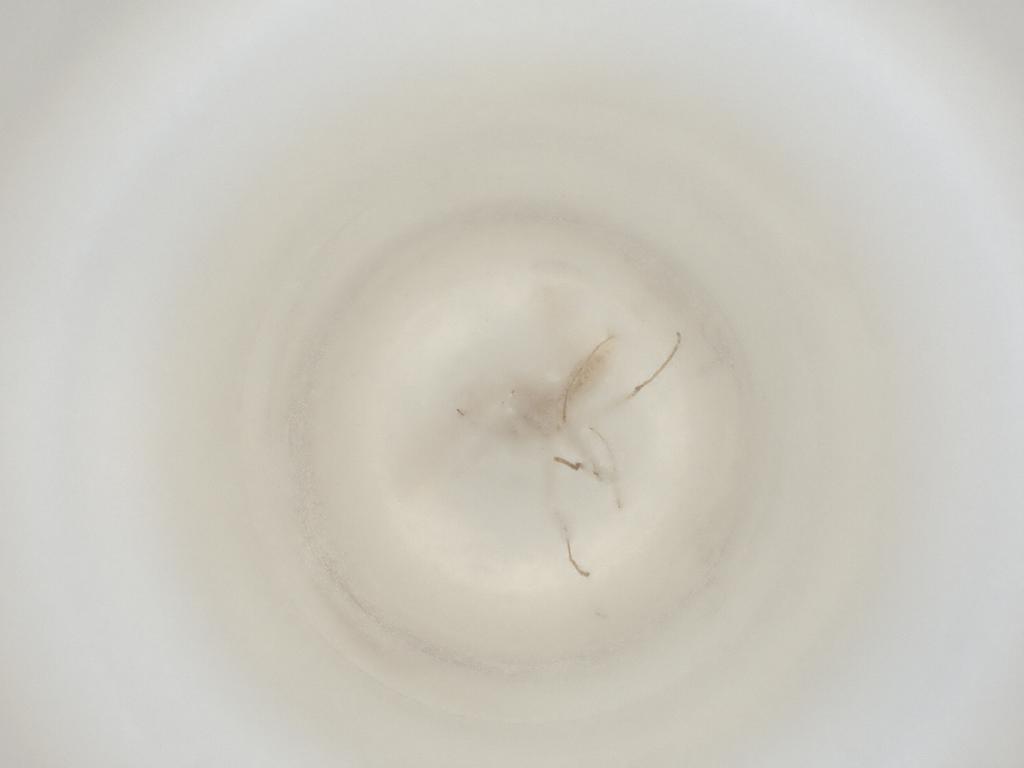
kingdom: Animalia
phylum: Arthropoda
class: Insecta
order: Diptera
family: Cecidomyiidae
